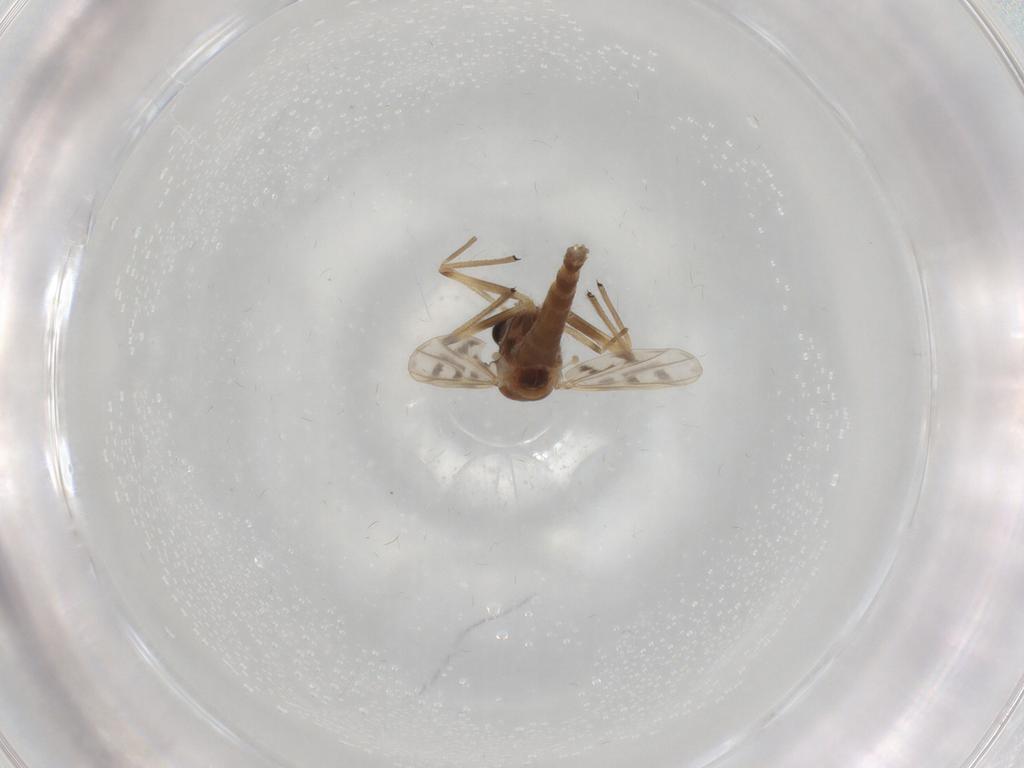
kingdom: Animalia
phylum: Arthropoda
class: Insecta
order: Diptera
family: Chironomidae
